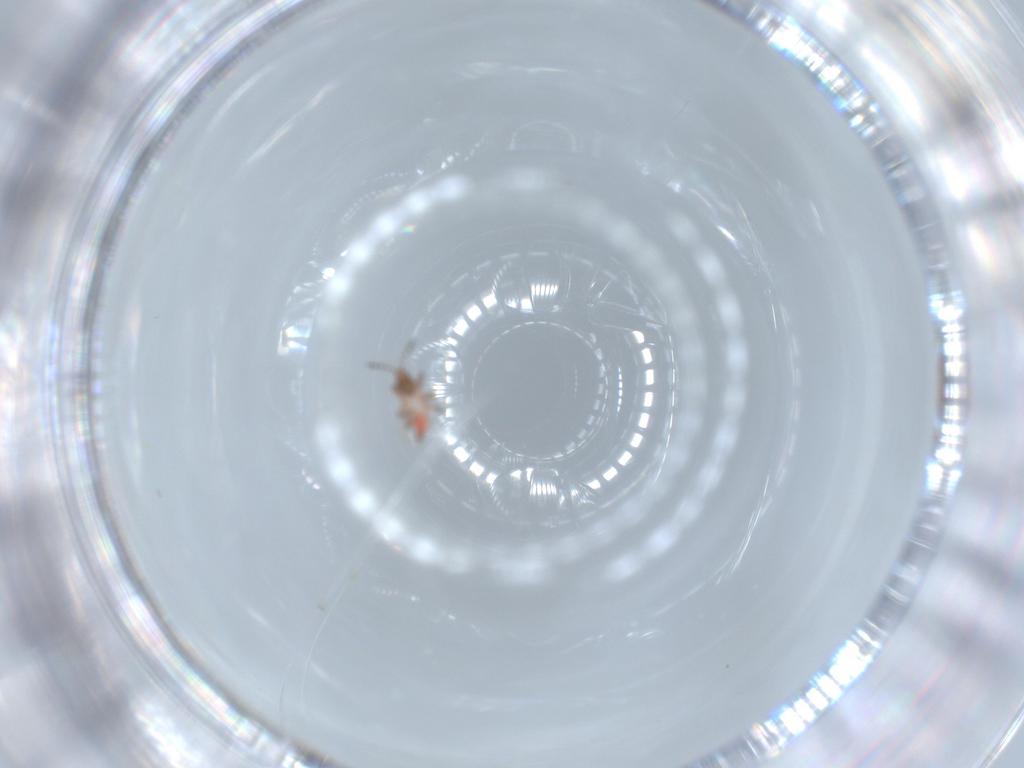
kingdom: Animalia
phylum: Arthropoda
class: Insecta
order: Thysanoptera
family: Phlaeothripidae
